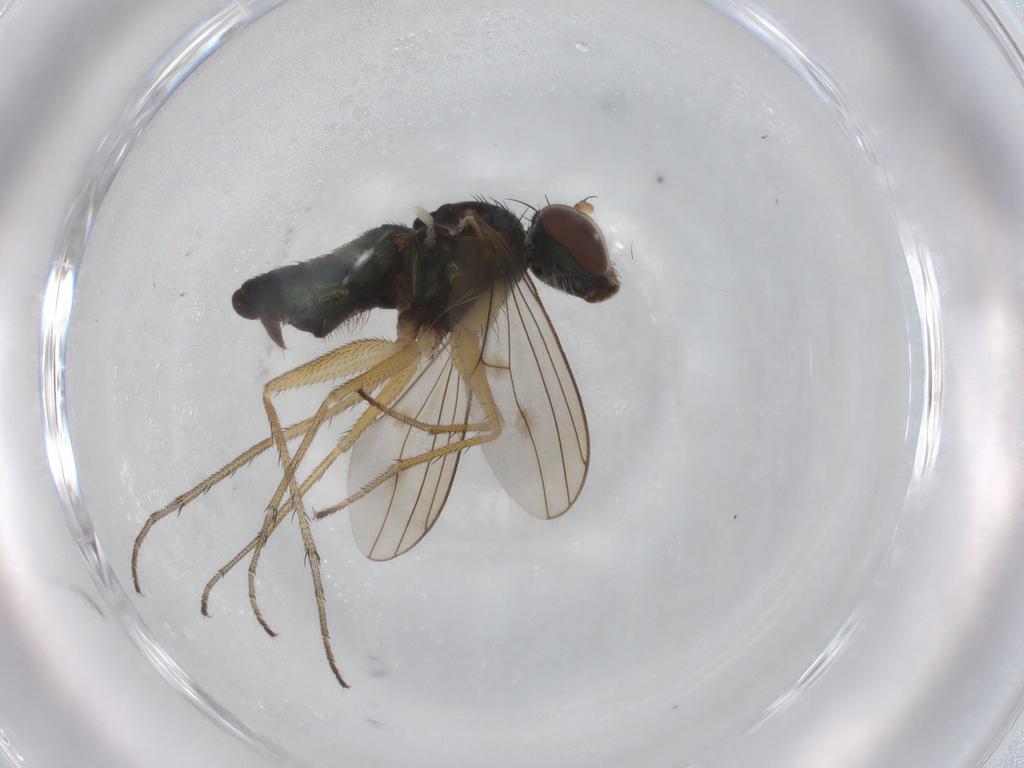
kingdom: Animalia
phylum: Arthropoda
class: Insecta
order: Diptera
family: Dolichopodidae
